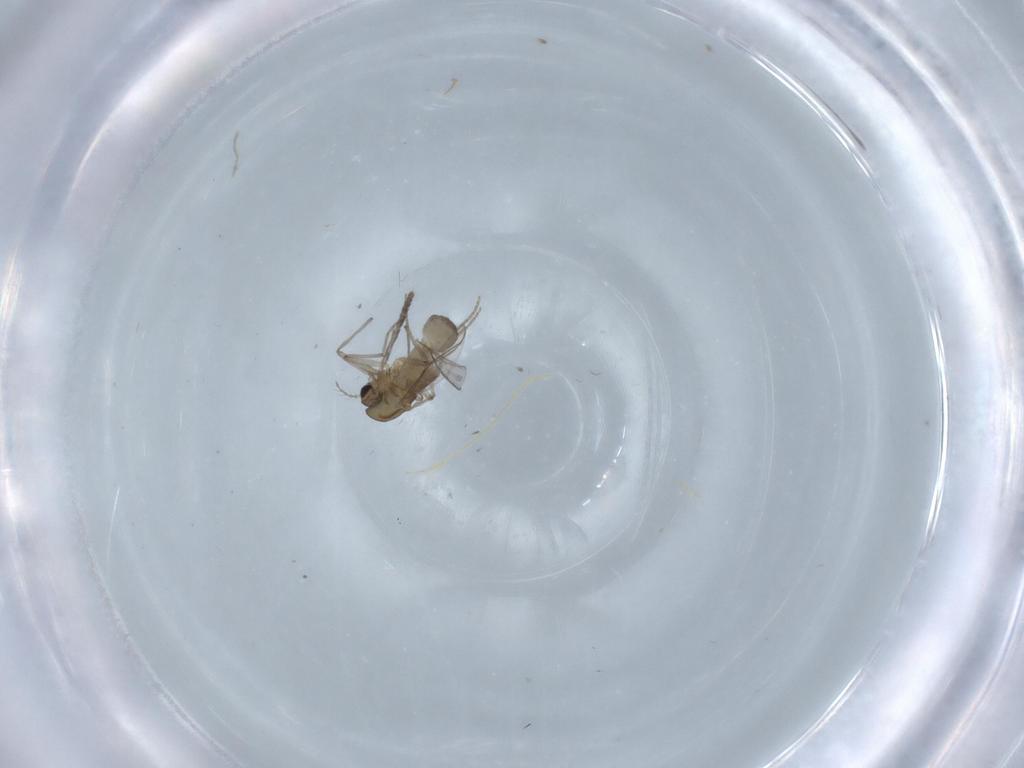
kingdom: Animalia
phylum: Arthropoda
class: Insecta
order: Diptera
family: Chironomidae
